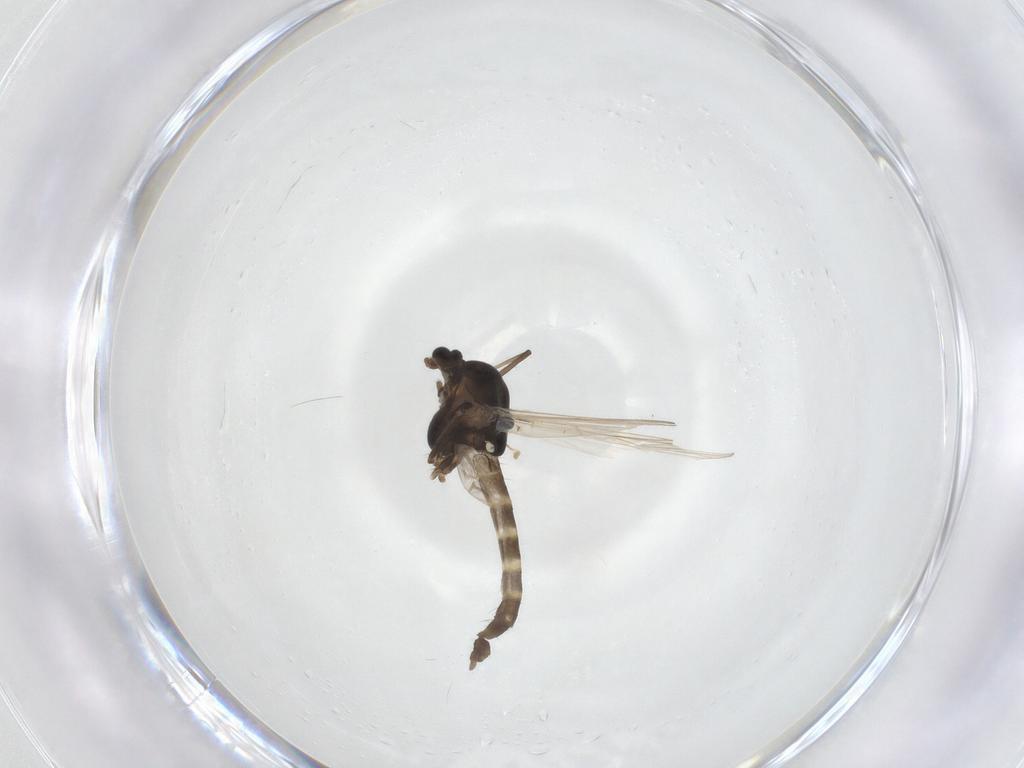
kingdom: Animalia
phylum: Arthropoda
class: Insecta
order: Diptera
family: Chironomidae
